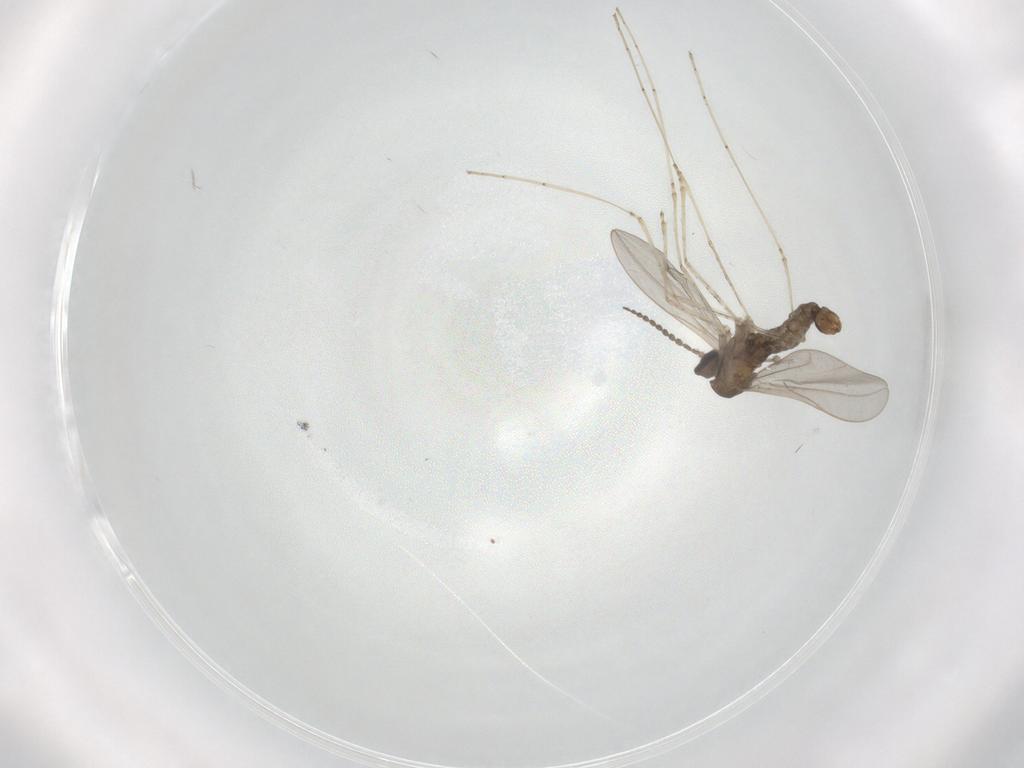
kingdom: Animalia
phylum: Arthropoda
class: Insecta
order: Diptera
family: Cecidomyiidae
